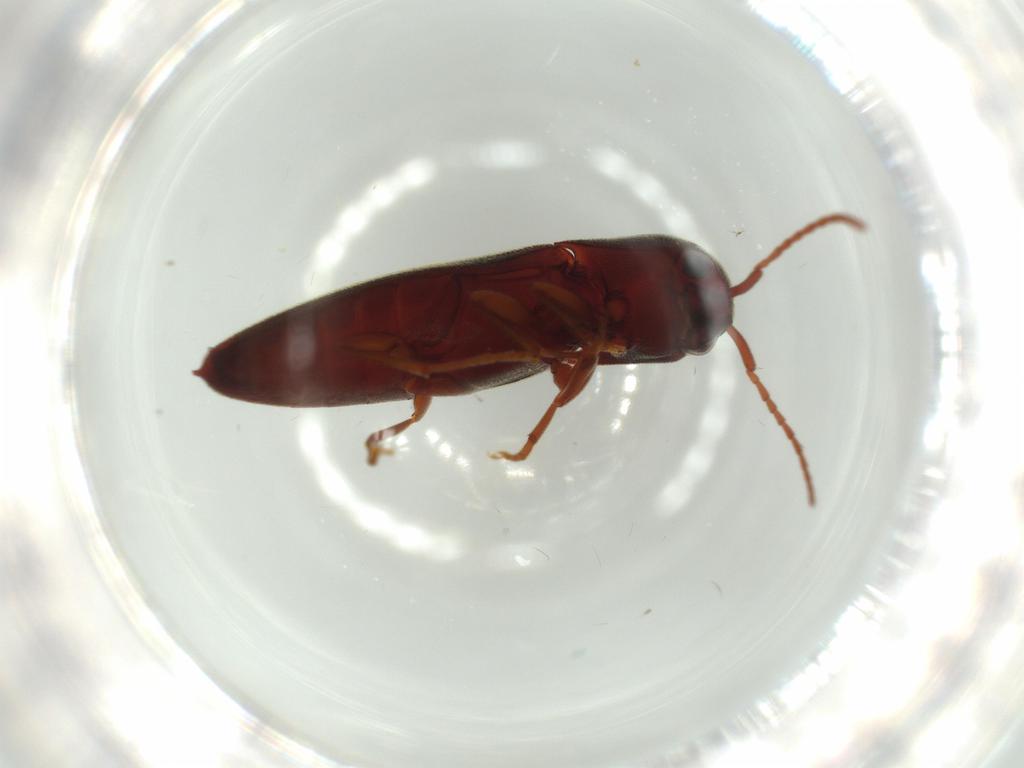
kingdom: Animalia
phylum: Arthropoda
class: Insecta
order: Coleoptera
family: Eucnemidae
